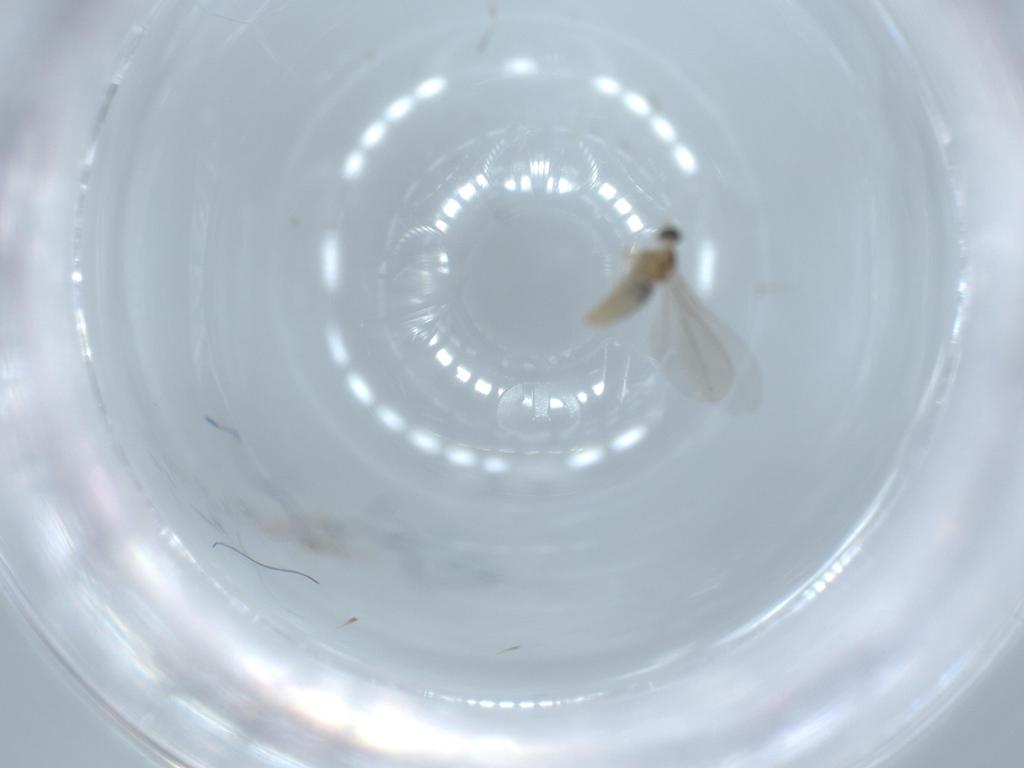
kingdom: Animalia
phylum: Arthropoda
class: Insecta
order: Diptera
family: Cecidomyiidae
